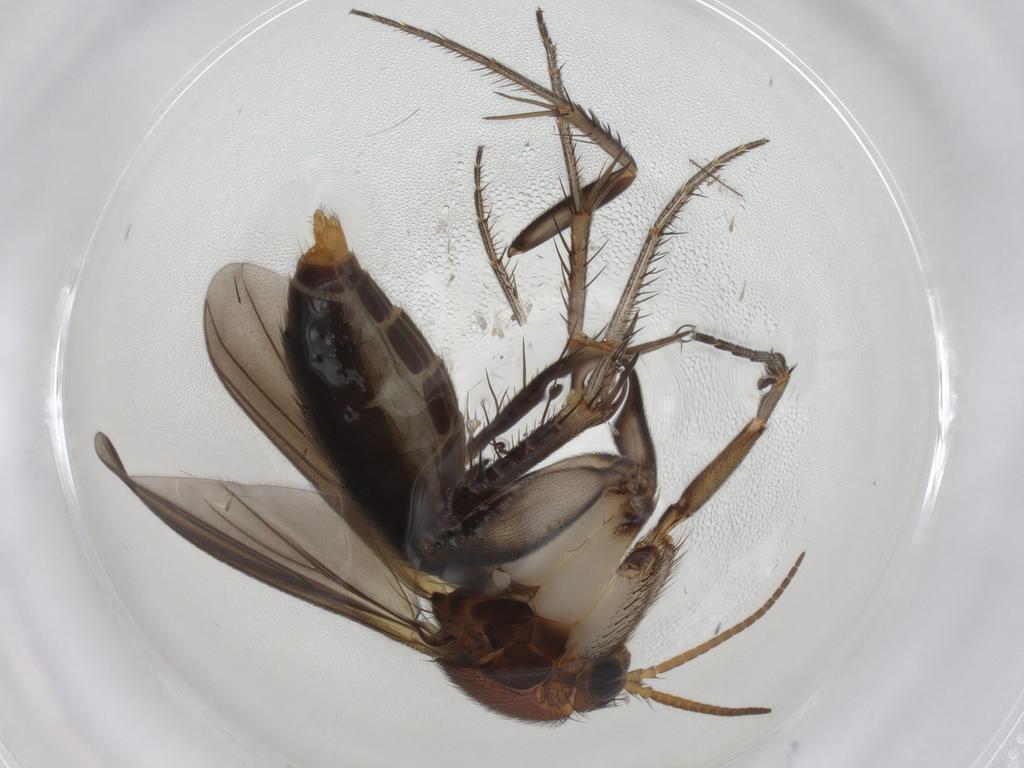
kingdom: Animalia
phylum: Arthropoda
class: Insecta
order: Diptera
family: Mycetophilidae
